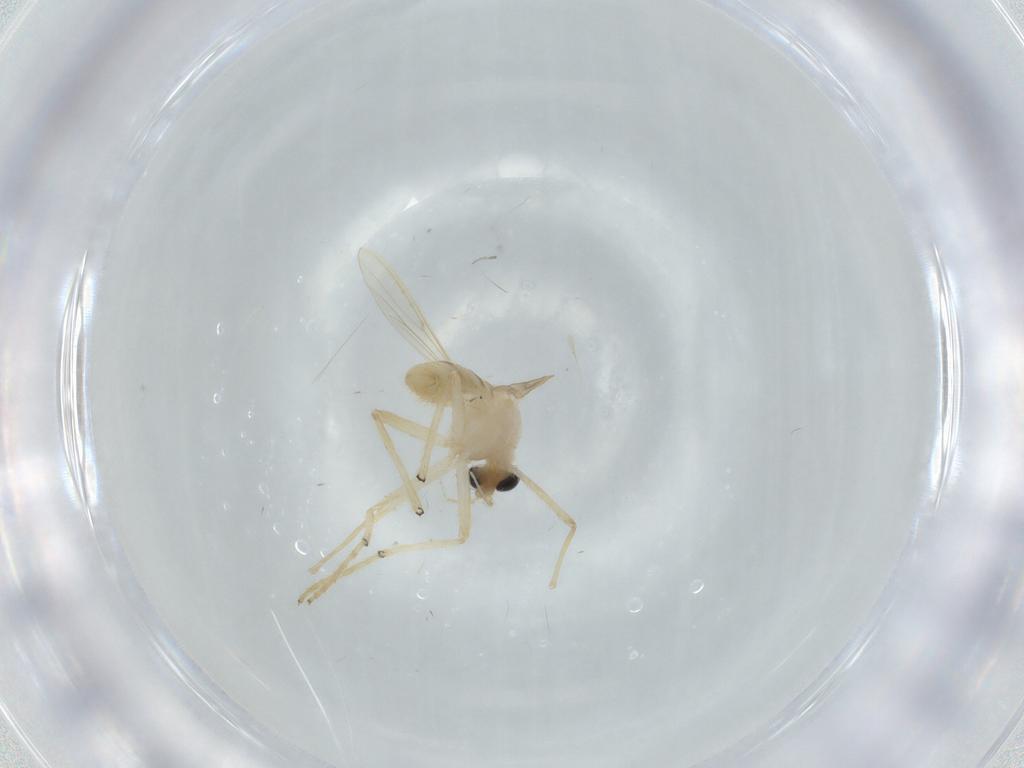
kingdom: Animalia
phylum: Arthropoda
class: Insecta
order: Diptera
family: Chironomidae
